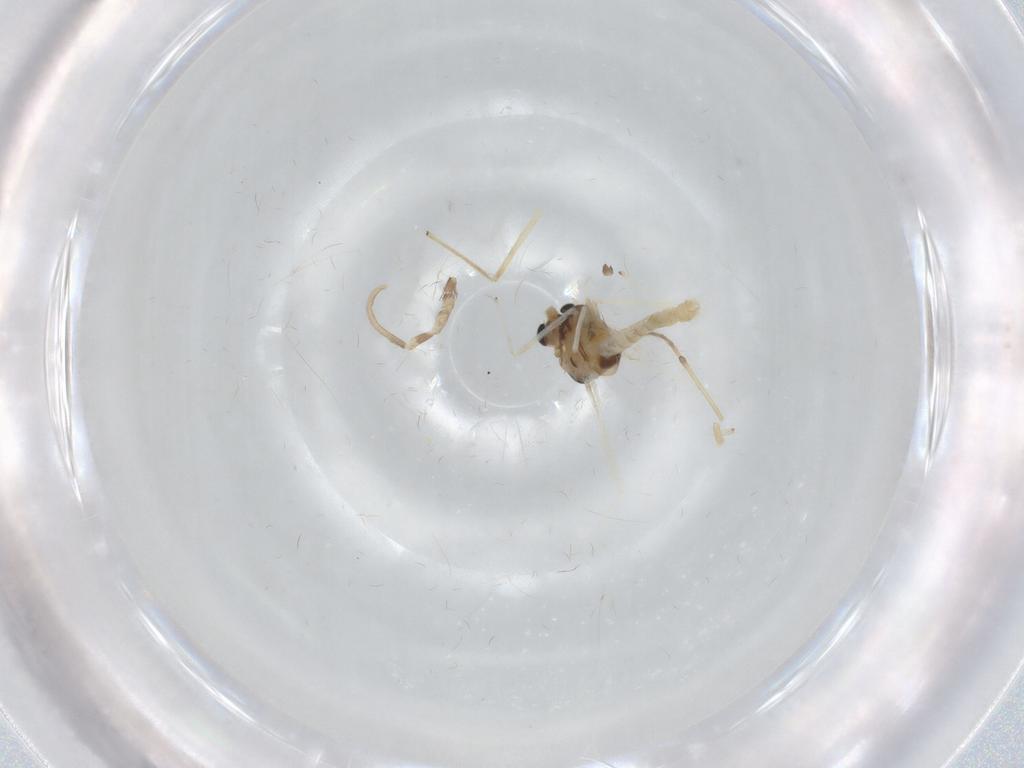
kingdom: Animalia
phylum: Arthropoda
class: Insecta
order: Diptera
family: Chironomidae
